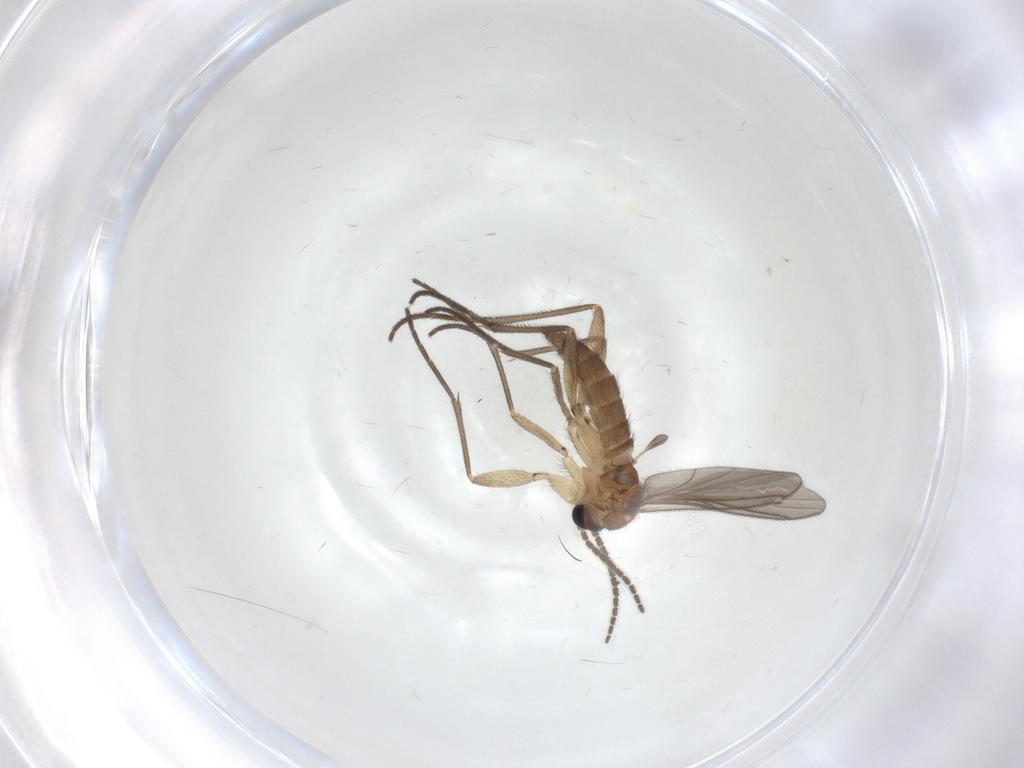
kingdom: Animalia
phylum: Arthropoda
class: Insecta
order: Diptera
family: Sciaridae
